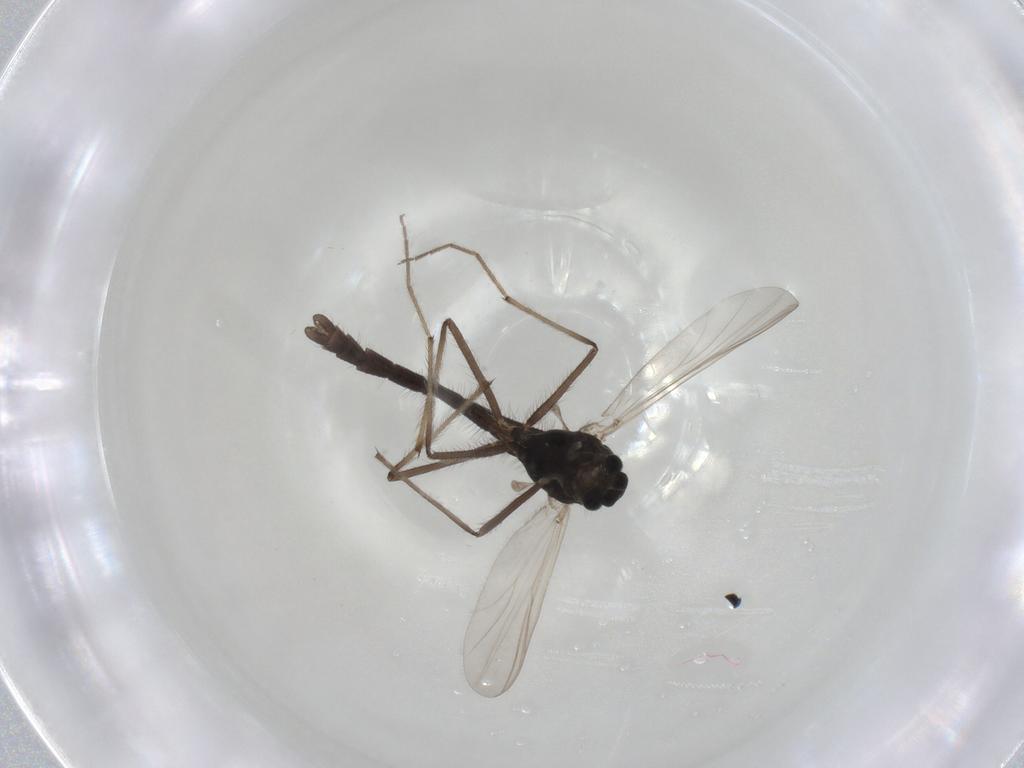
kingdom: Animalia
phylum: Arthropoda
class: Insecta
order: Diptera
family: Chironomidae
